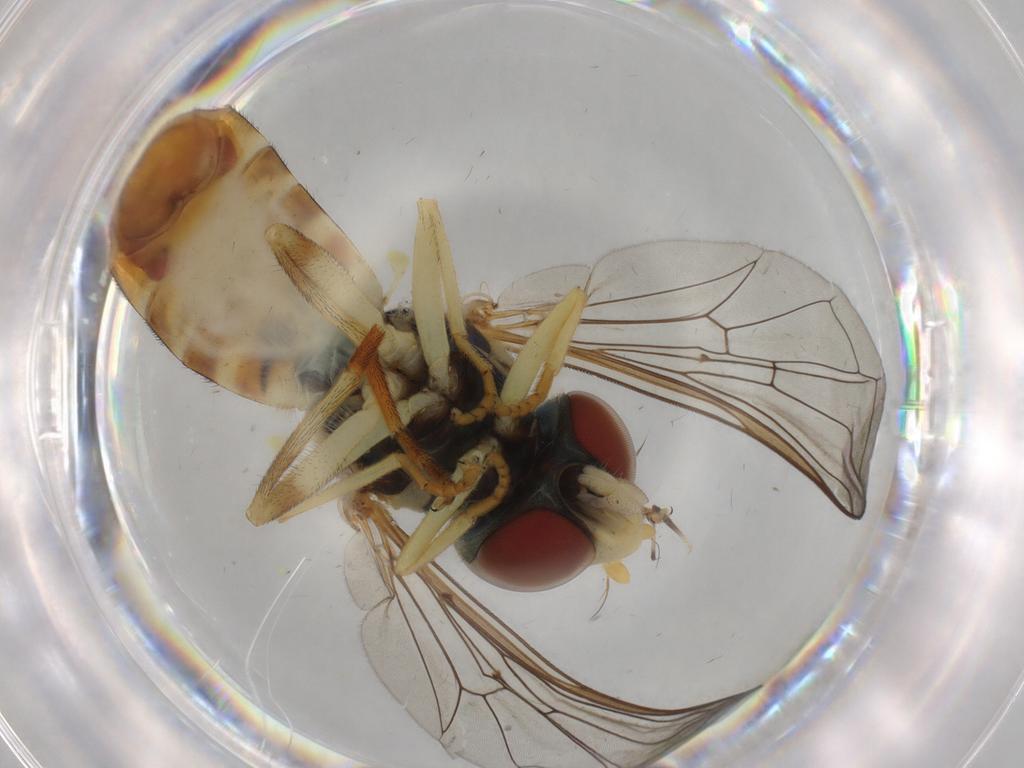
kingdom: Animalia
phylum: Arthropoda
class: Insecta
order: Diptera
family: Syrphidae
